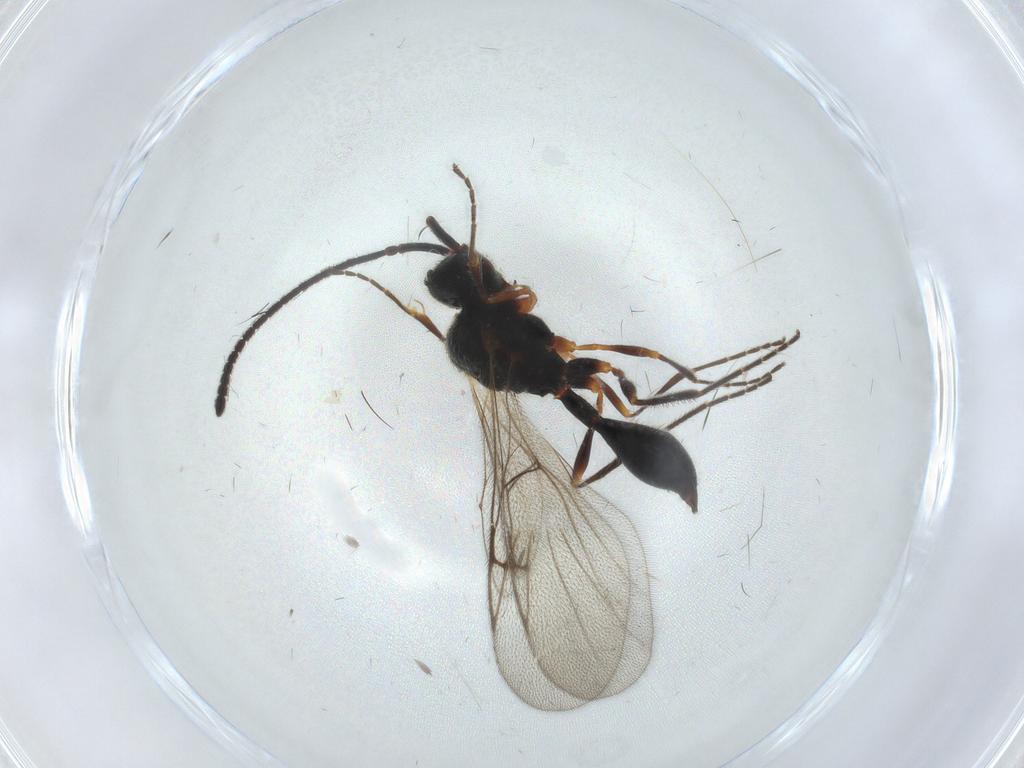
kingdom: Animalia
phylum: Arthropoda
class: Insecta
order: Hymenoptera
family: Diapriidae
